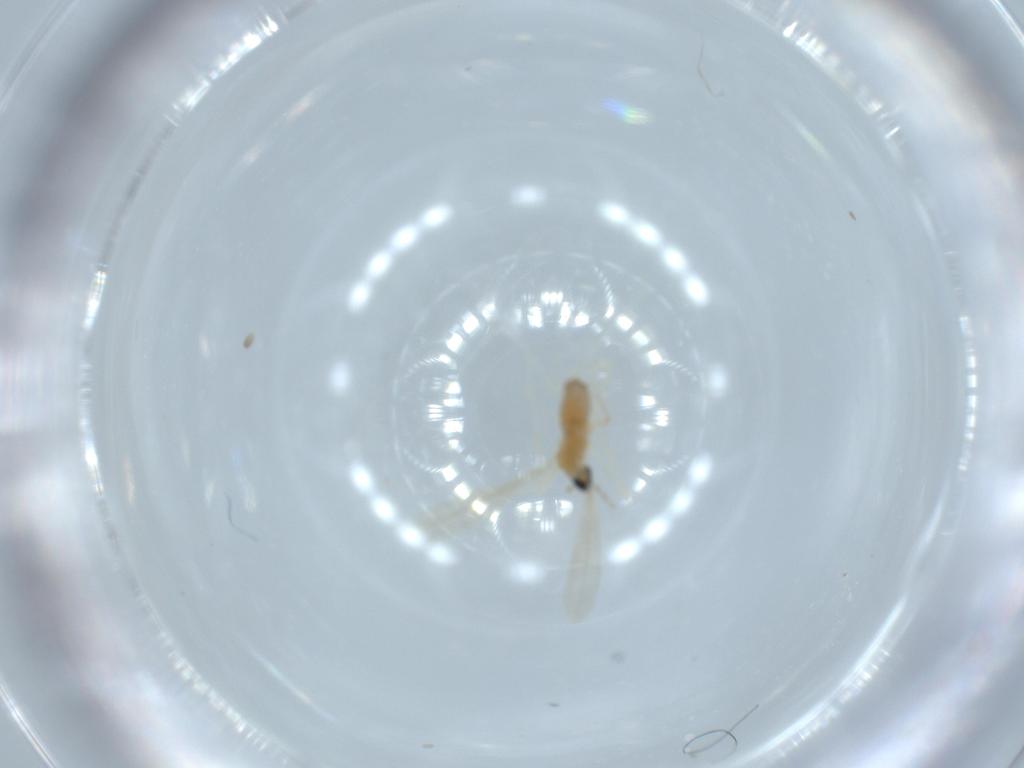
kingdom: Animalia
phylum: Arthropoda
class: Insecta
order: Diptera
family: Cecidomyiidae
